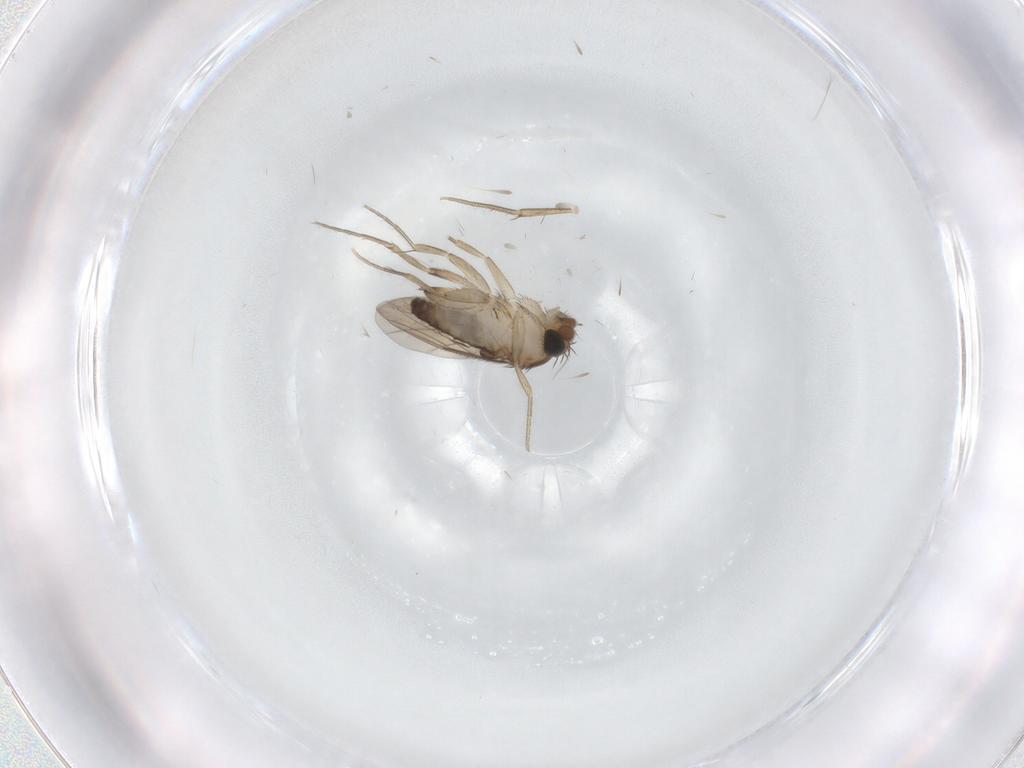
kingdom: Animalia
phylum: Arthropoda
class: Insecta
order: Diptera
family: Phoridae
